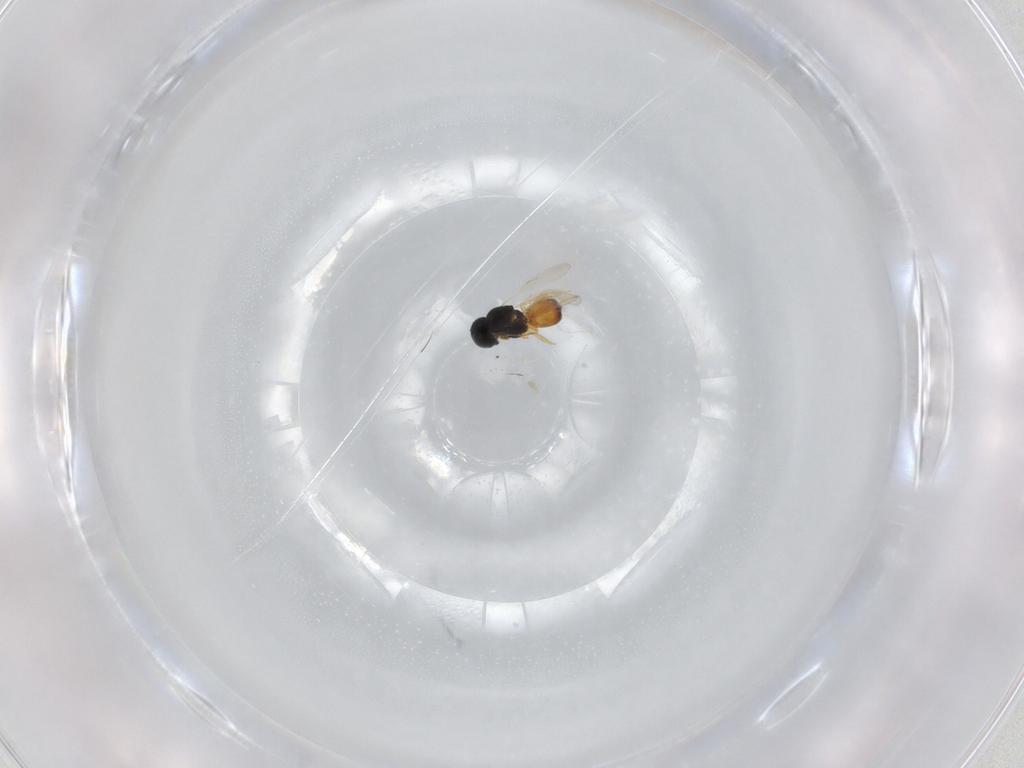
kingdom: Animalia
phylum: Arthropoda
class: Insecta
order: Hymenoptera
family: Scelionidae
